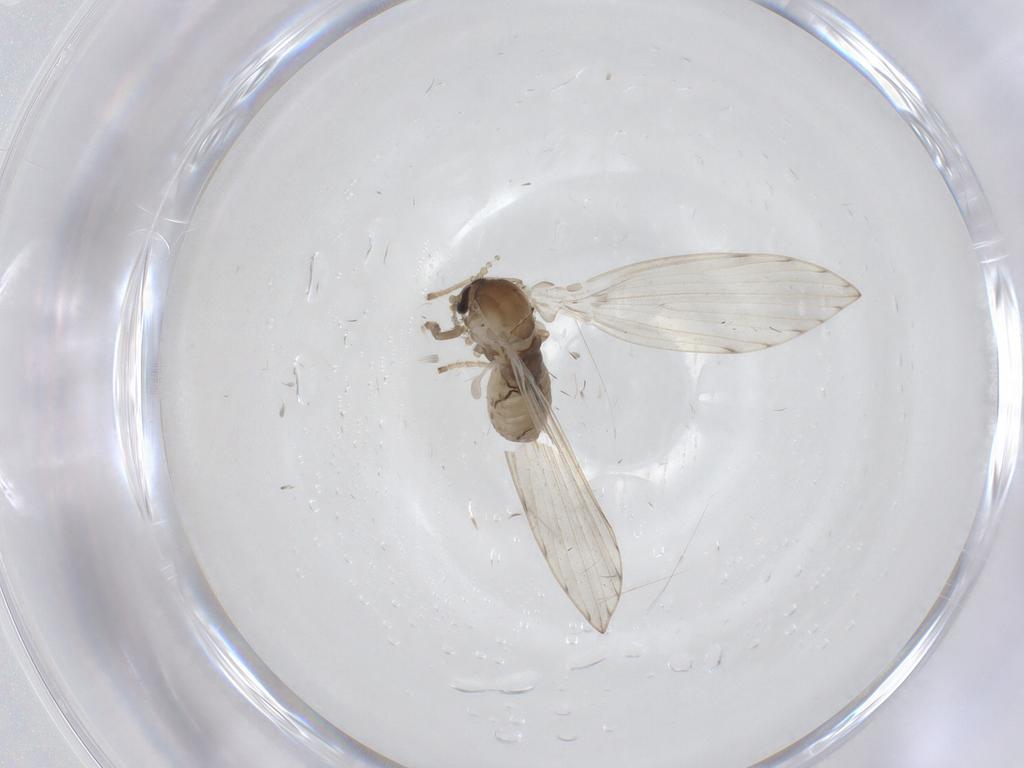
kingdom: Animalia
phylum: Arthropoda
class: Insecta
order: Diptera
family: Psychodidae
